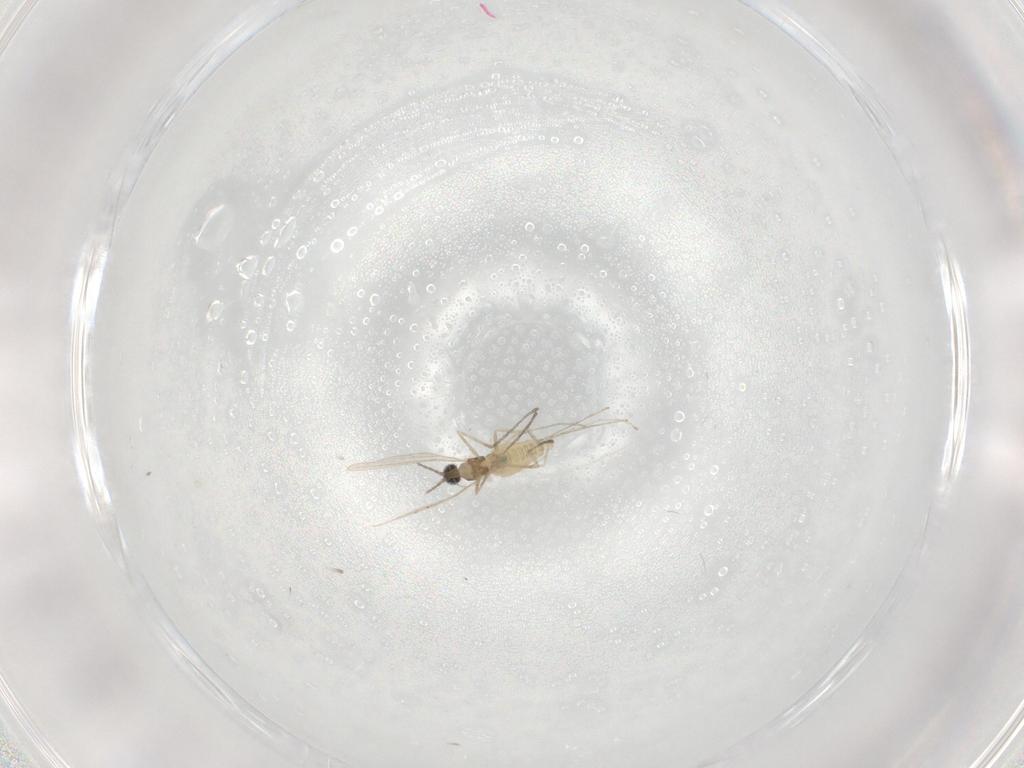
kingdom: Animalia
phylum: Arthropoda
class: Insecta
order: Diptera
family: Cecidomyiidae
